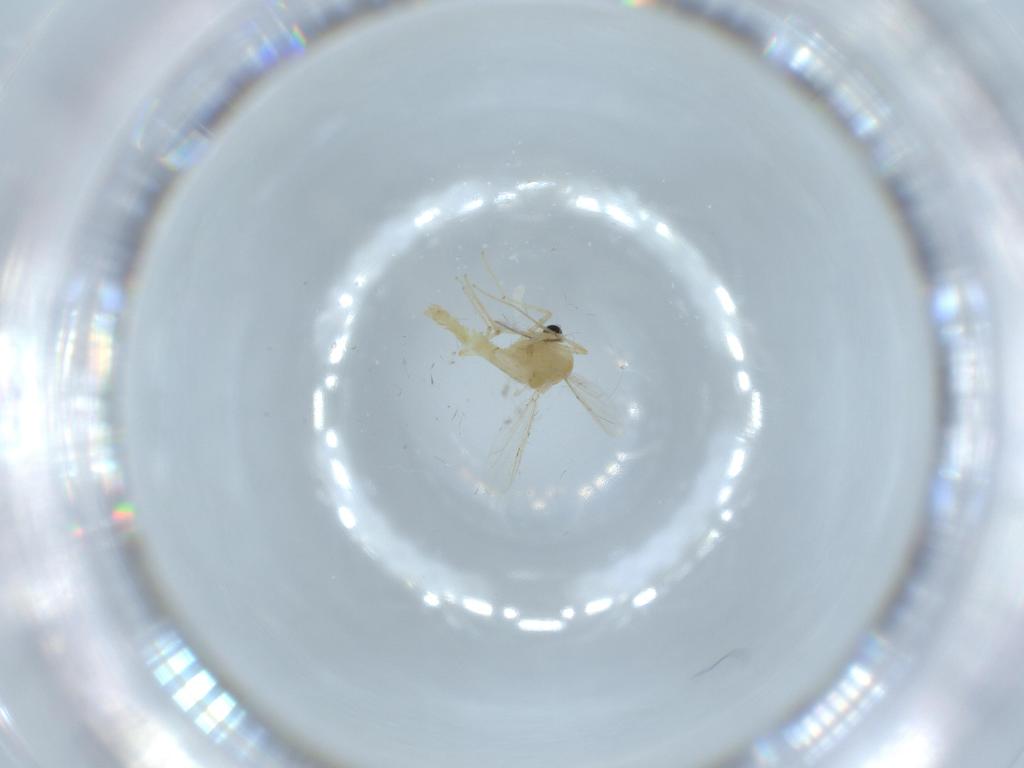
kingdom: Animalia
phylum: Arthropoda
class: Insecta
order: Diptera
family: Chironomidae
